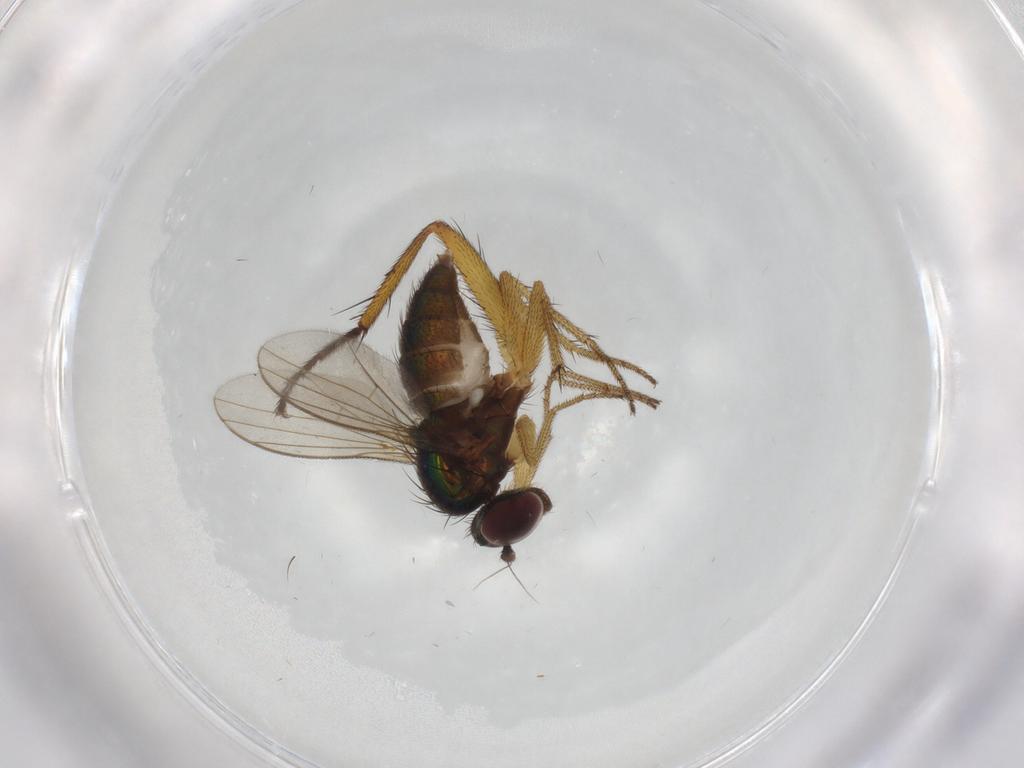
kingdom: Animalia
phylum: Arthropoda
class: Insecta
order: Diptera
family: Muscidae
